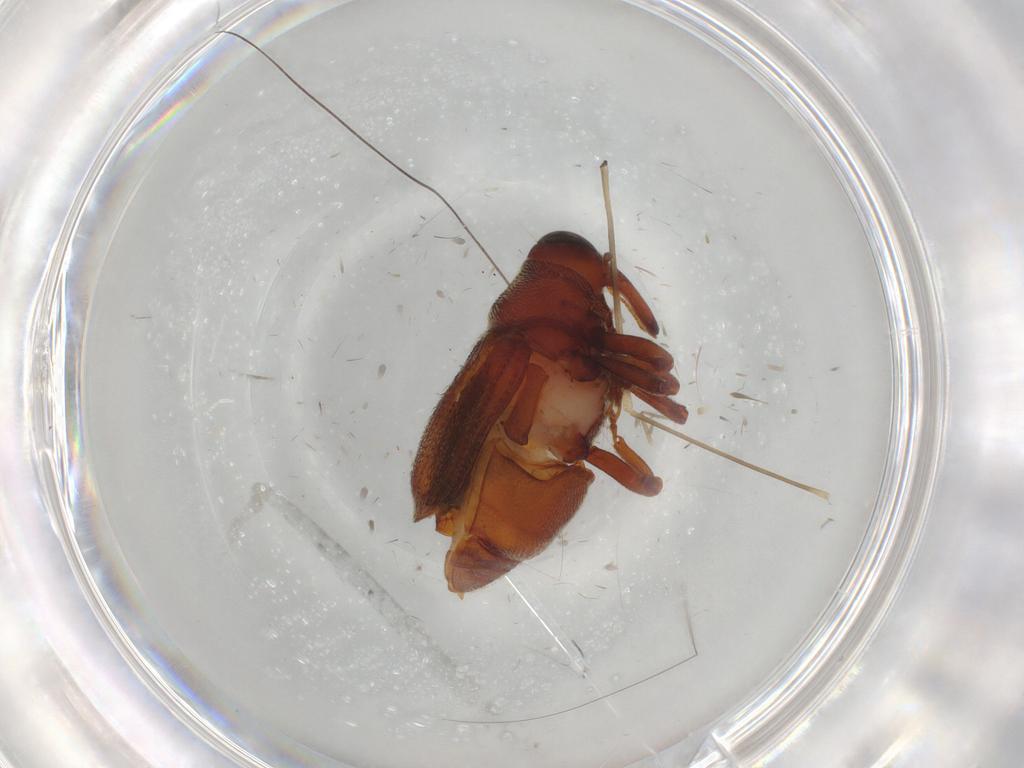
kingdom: Animalia
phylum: Arthropoda
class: Insecta
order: Coleoptera
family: Curculionidae
